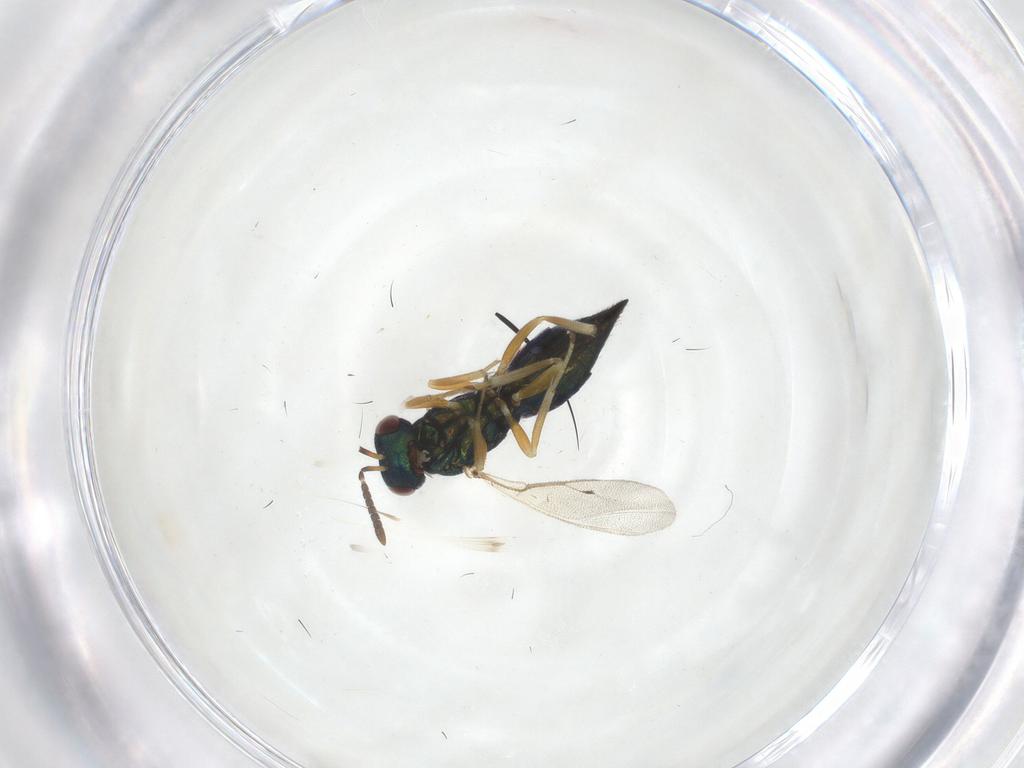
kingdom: Animalia
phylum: Arthropoda
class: Insecta
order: Hymenoptera
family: Pteromalidae
